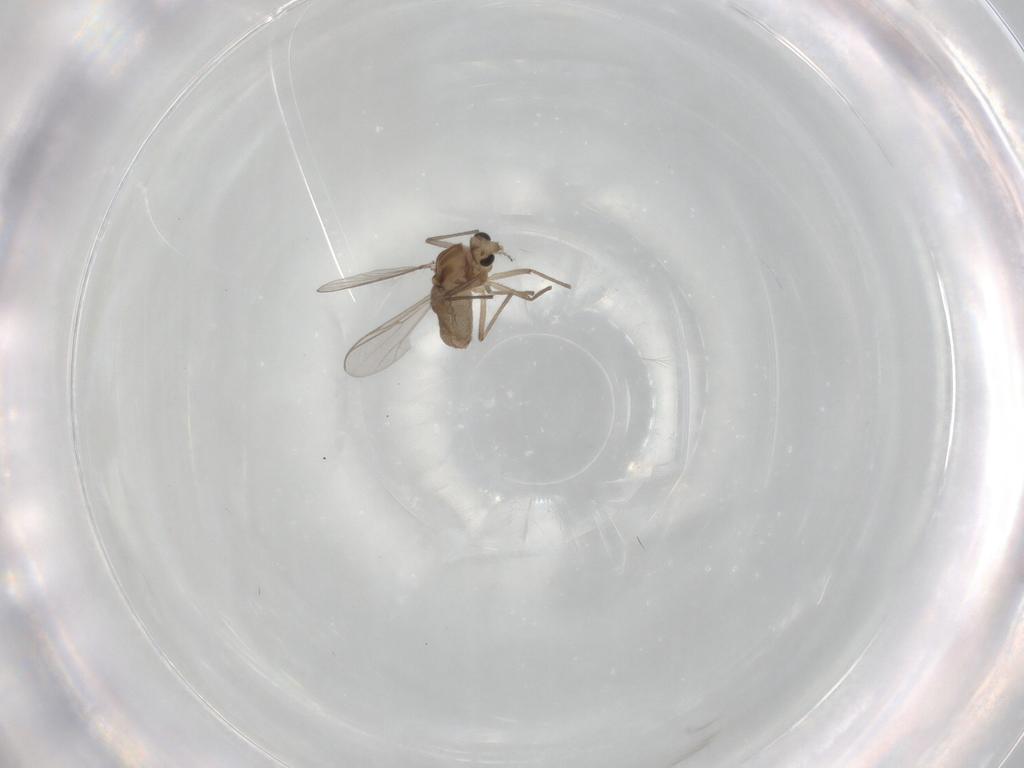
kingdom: Animalia
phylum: Arthropoda
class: Insecta
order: Diptera
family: Chironomidae
